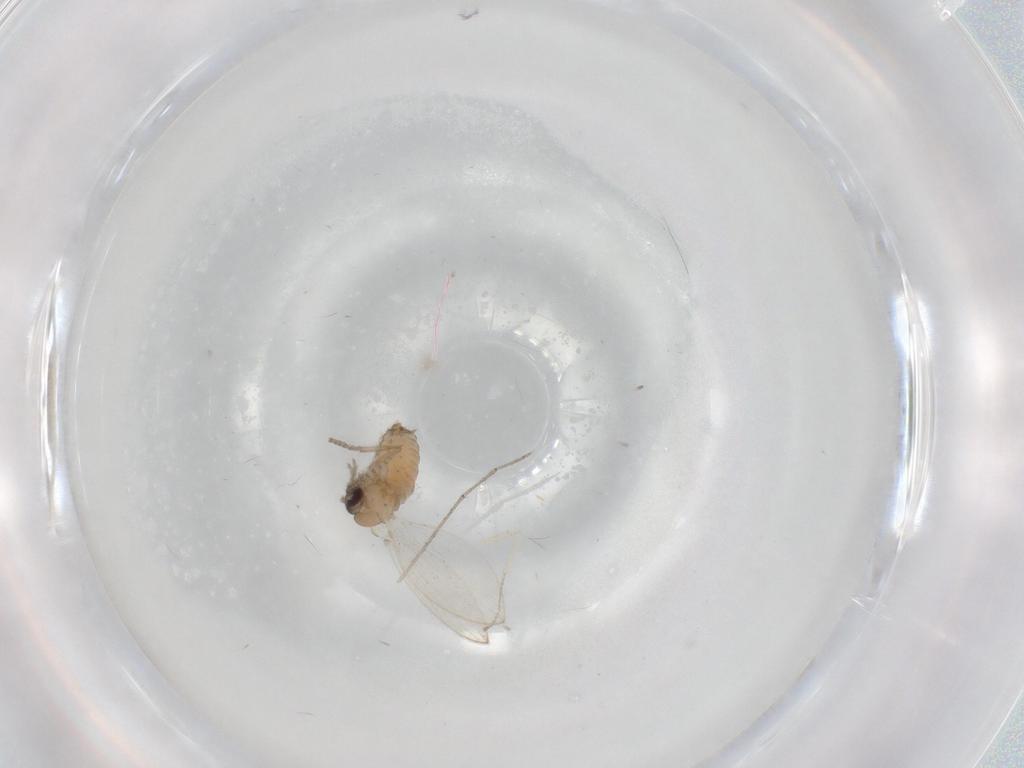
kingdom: Animalia
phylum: Arthropoda
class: Insecta
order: Diptera
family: Psychodidae
